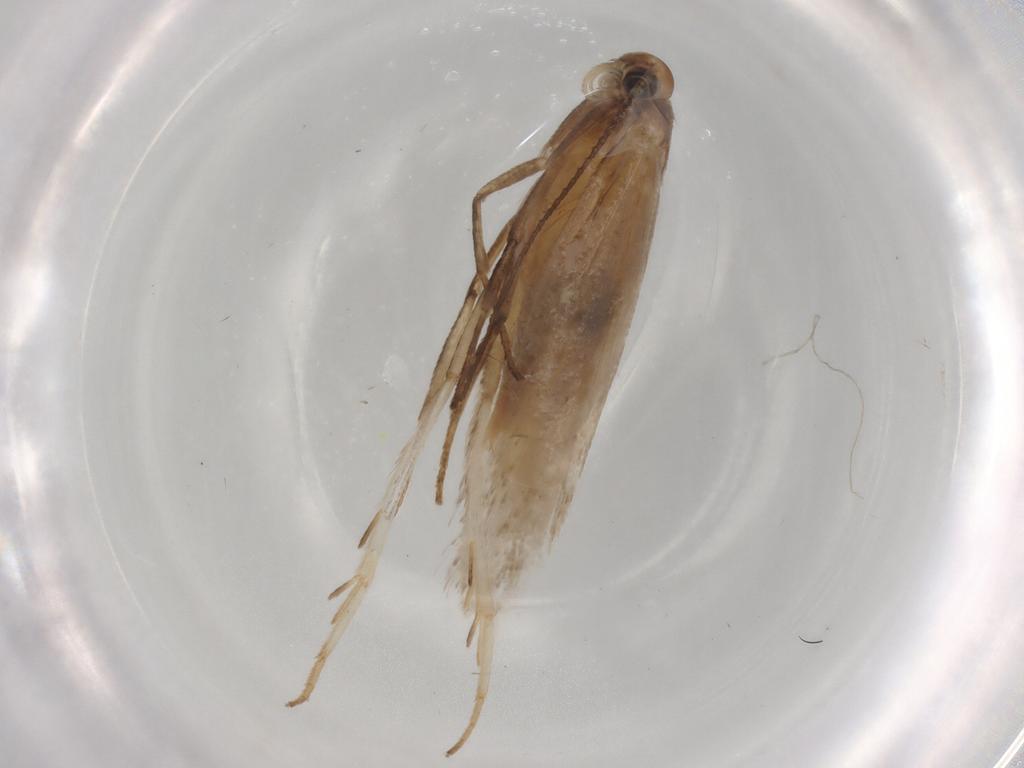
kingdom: Animalia
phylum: Arthropoda
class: Insecta
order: Lepidoptera
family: Gelechiidae
